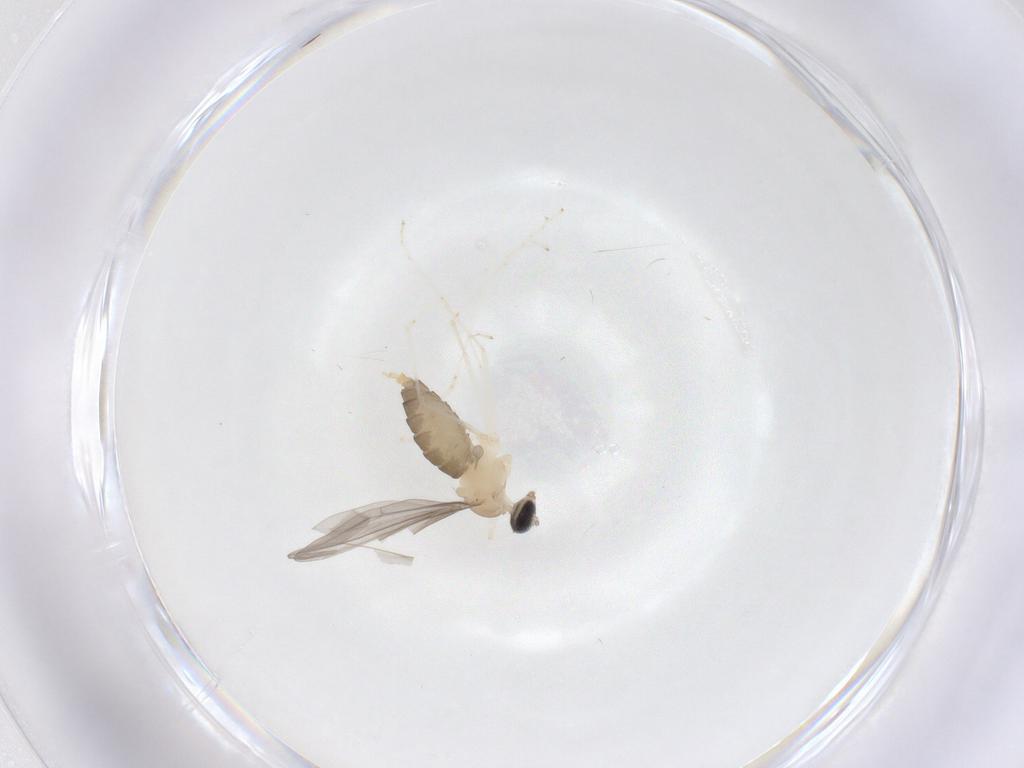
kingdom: Animalia
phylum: Arthropoda
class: Insecta
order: Diptera
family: Cecidomyiidae
